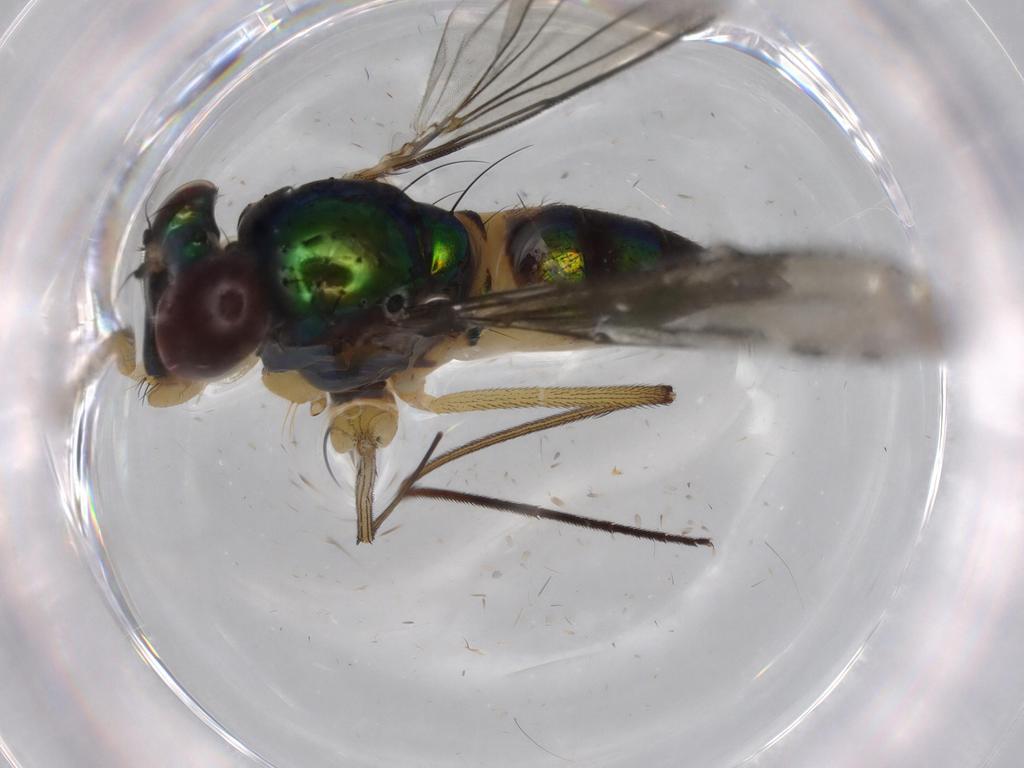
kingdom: Animalia
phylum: Arthropoda
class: Insecta
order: Diptera
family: Dolichopodidae
